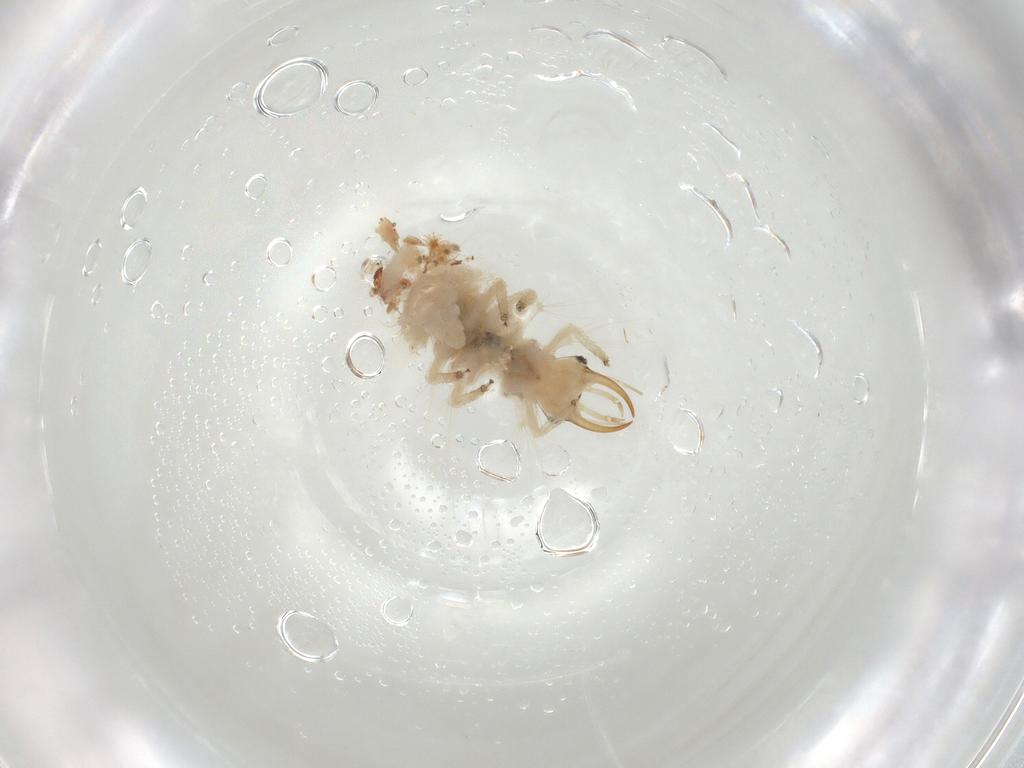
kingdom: Animalia
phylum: Arthropoda
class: Insecta
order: Neuroptera
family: Chrysopidae
